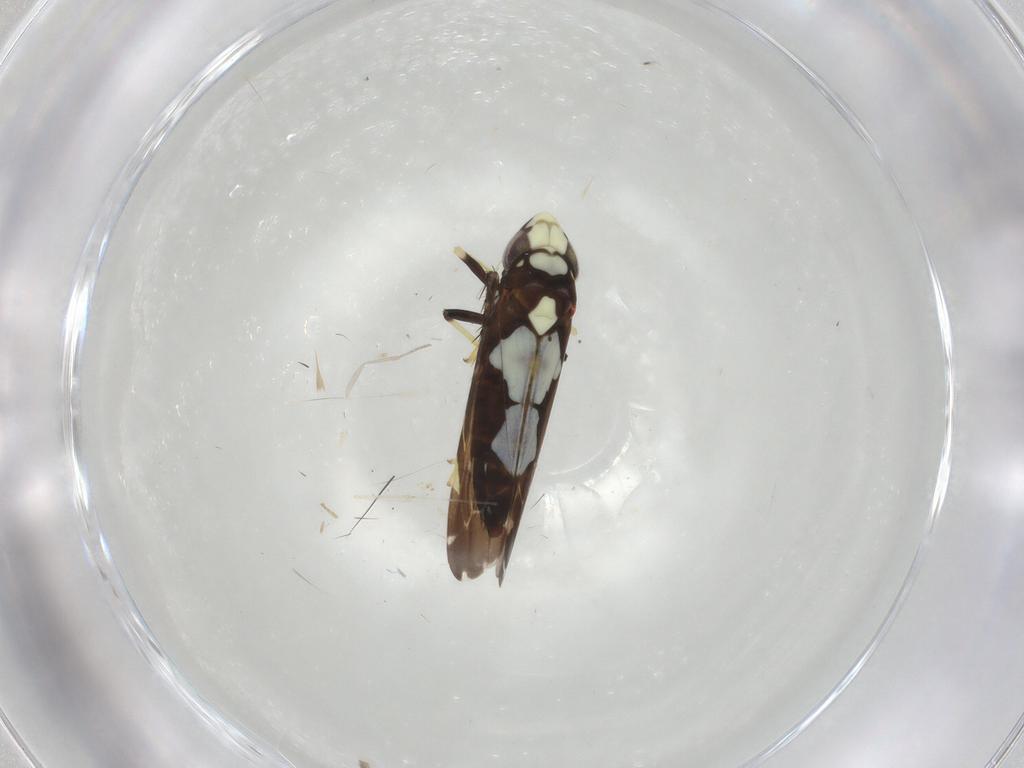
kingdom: Animalia
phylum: Arthropoda
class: Insecta
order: Hemiptera
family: Cicadellidae
